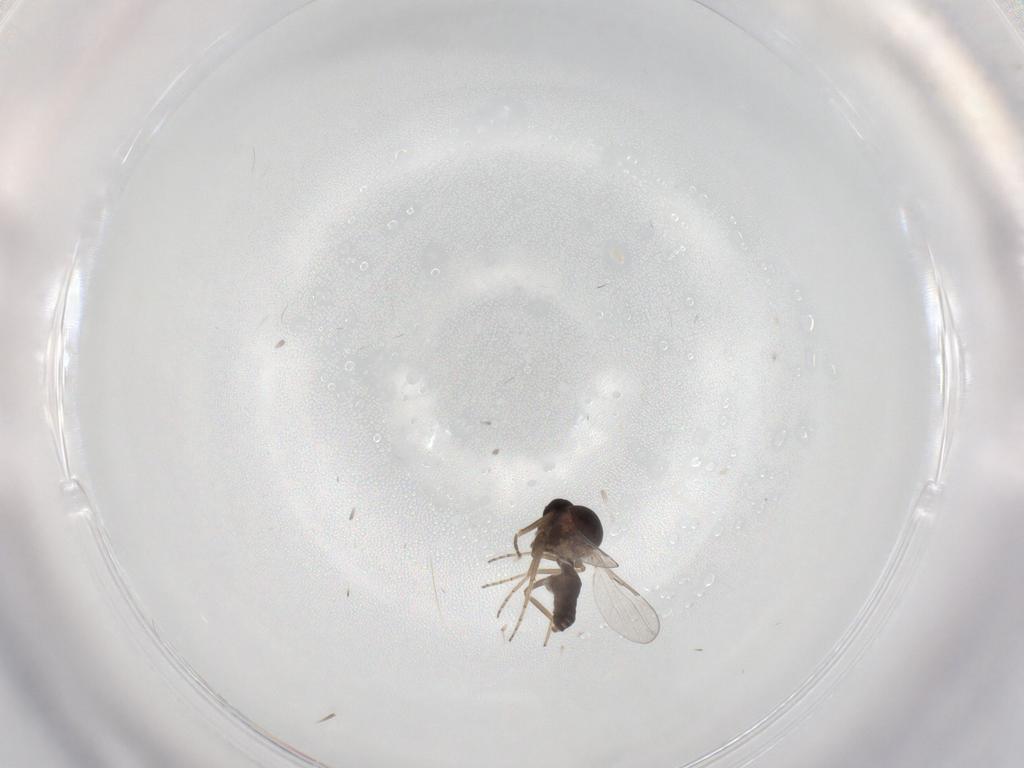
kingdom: Animalia
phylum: Arthropoda
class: Insecta
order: Diptera
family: Ceratopogonidae
